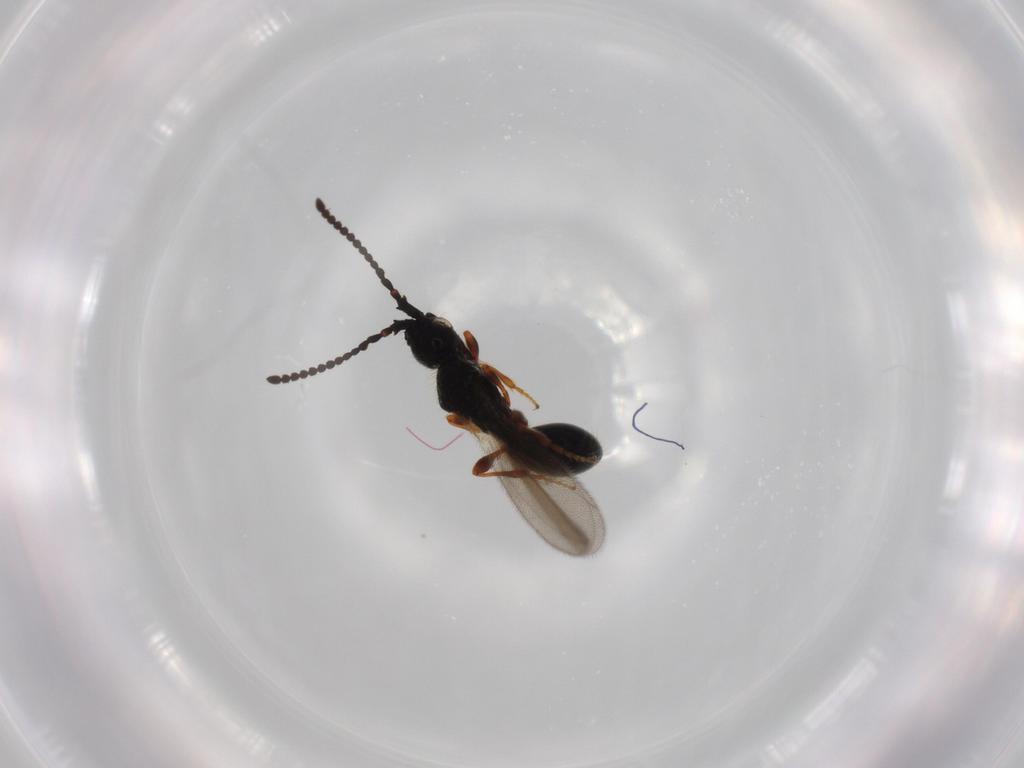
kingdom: Animalia
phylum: Arthropoda
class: Insecta
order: Hymenoptera
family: Diapriidae
